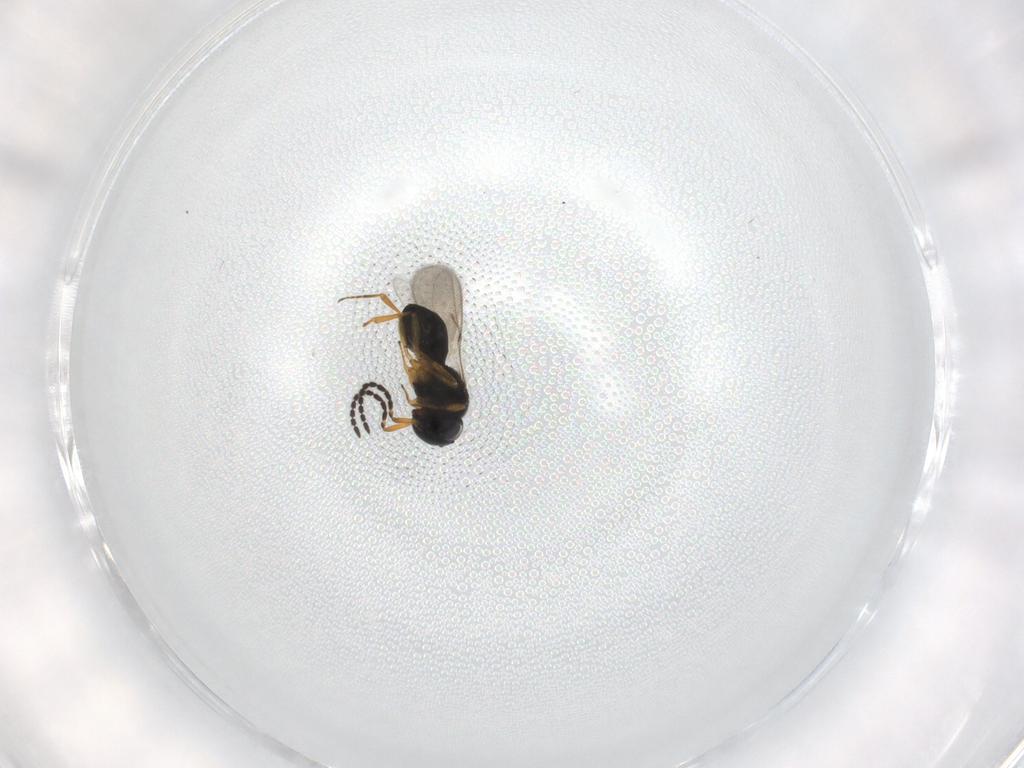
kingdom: Animalia
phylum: Arthropoda
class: Insecta
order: Hymenoptera
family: Scelionidae
